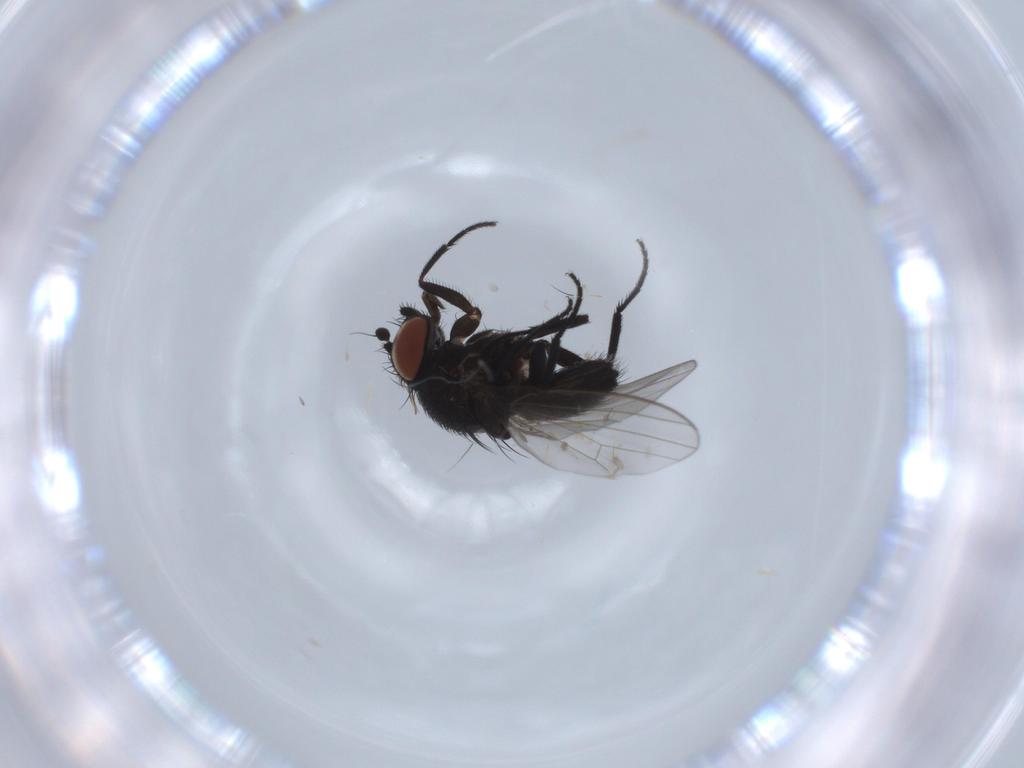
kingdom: Animalia
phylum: Arthropoda
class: Insecta
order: Diptera
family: Milichiidae
